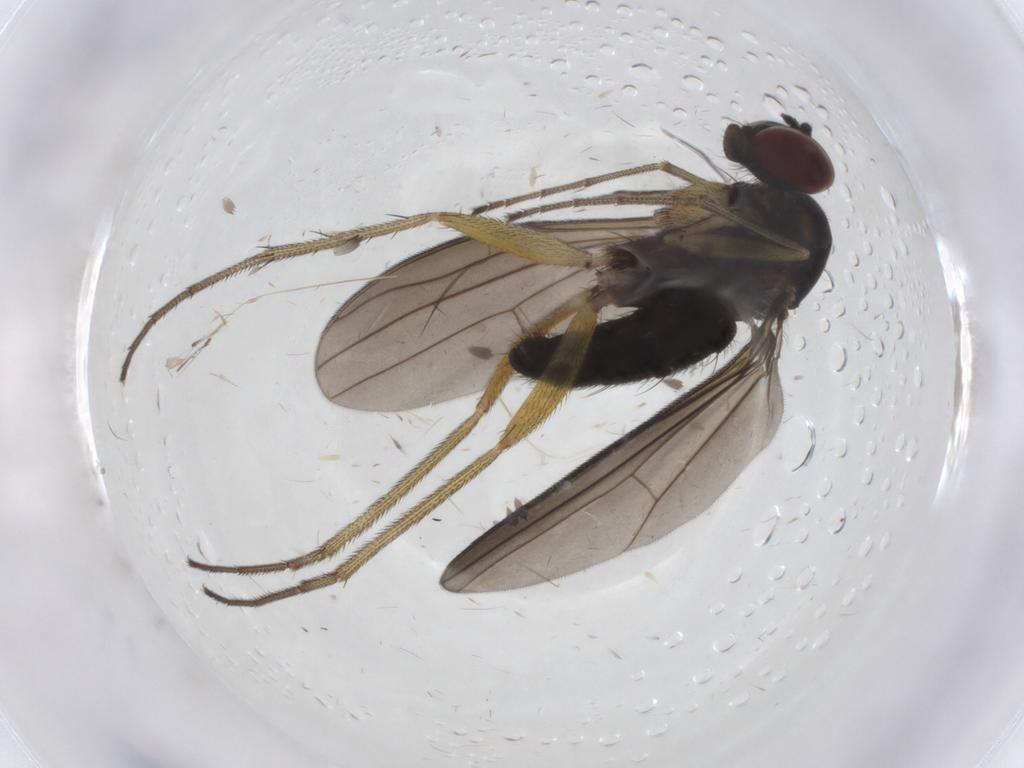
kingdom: Animalia
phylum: Arthropoda
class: Insecta
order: Diptera
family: Dolichopodidae
